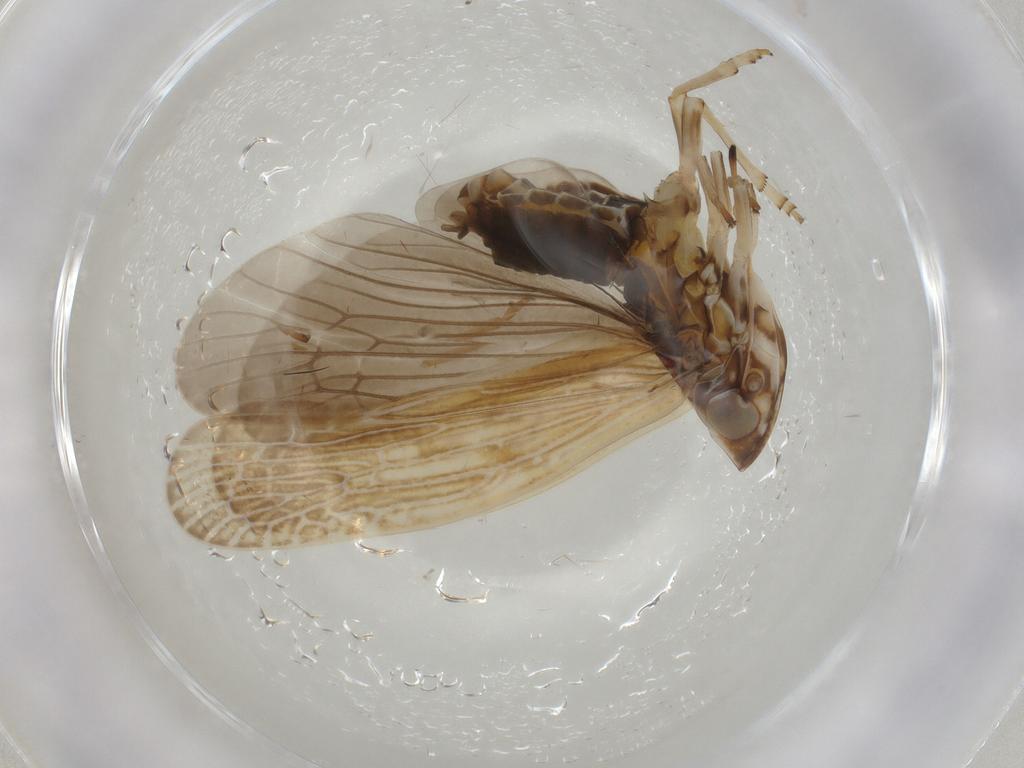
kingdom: Animalia
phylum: Arthropoda
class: Insecta
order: Hemiptera
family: Achilidae
